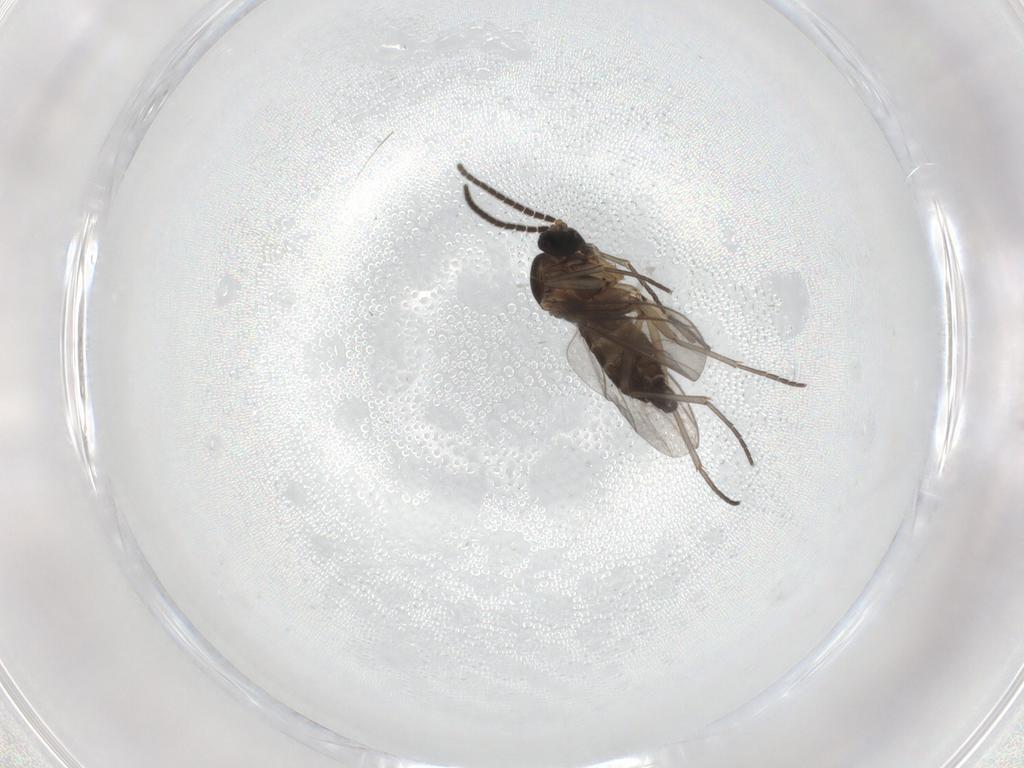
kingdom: Animalia
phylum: Arthropoda
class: Insecta
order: Diptera
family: Sciaridae
